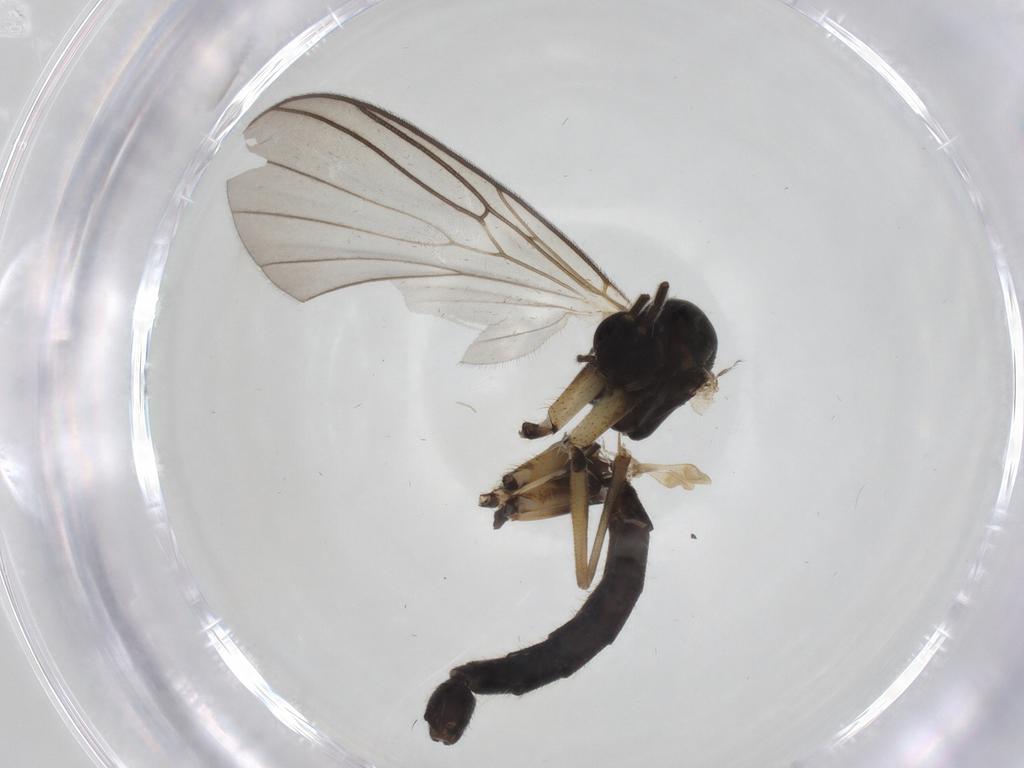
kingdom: Animalia
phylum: Arthropoda
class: Insecta
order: Diptera
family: Mycetophilidae
